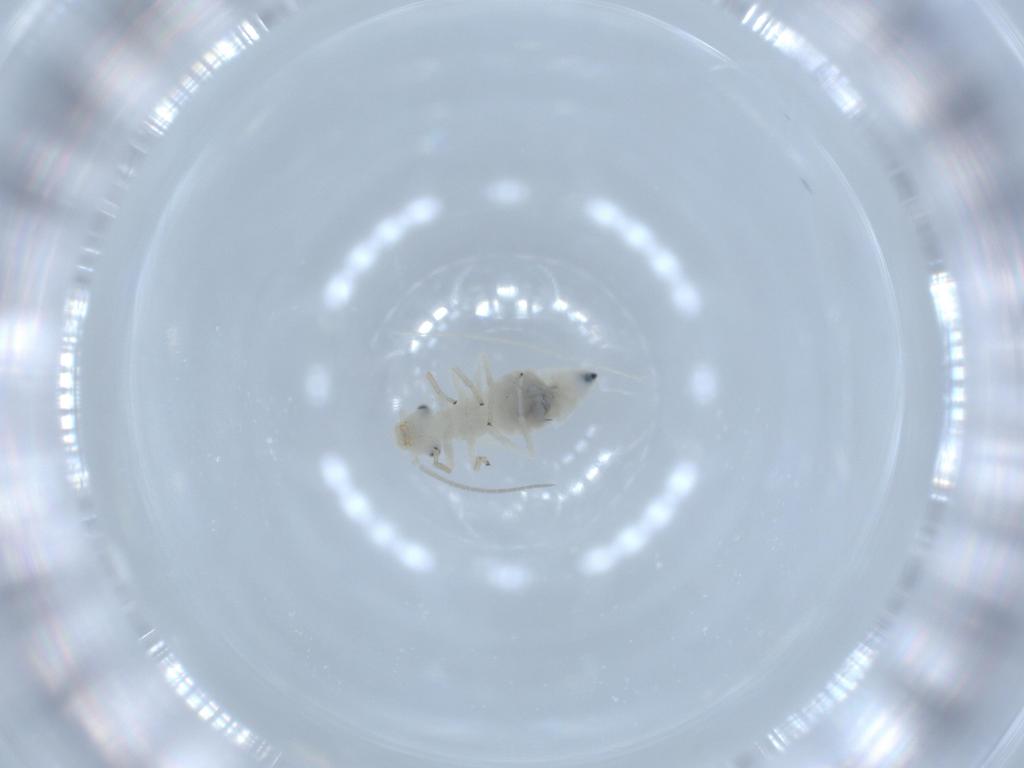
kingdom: Animalia
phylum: Arthropoda
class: Insecta
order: Psocodea
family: Caeciliusidae
